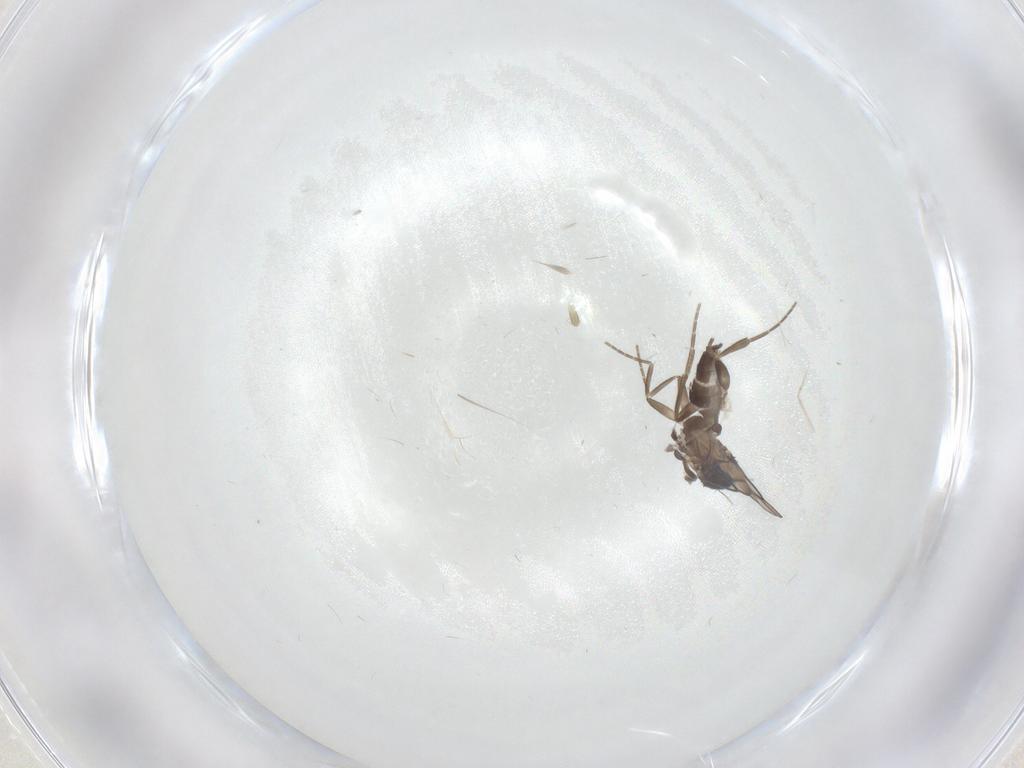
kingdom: Animalia
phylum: Arthropoda
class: Insecta
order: Diptera
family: Phoridae
